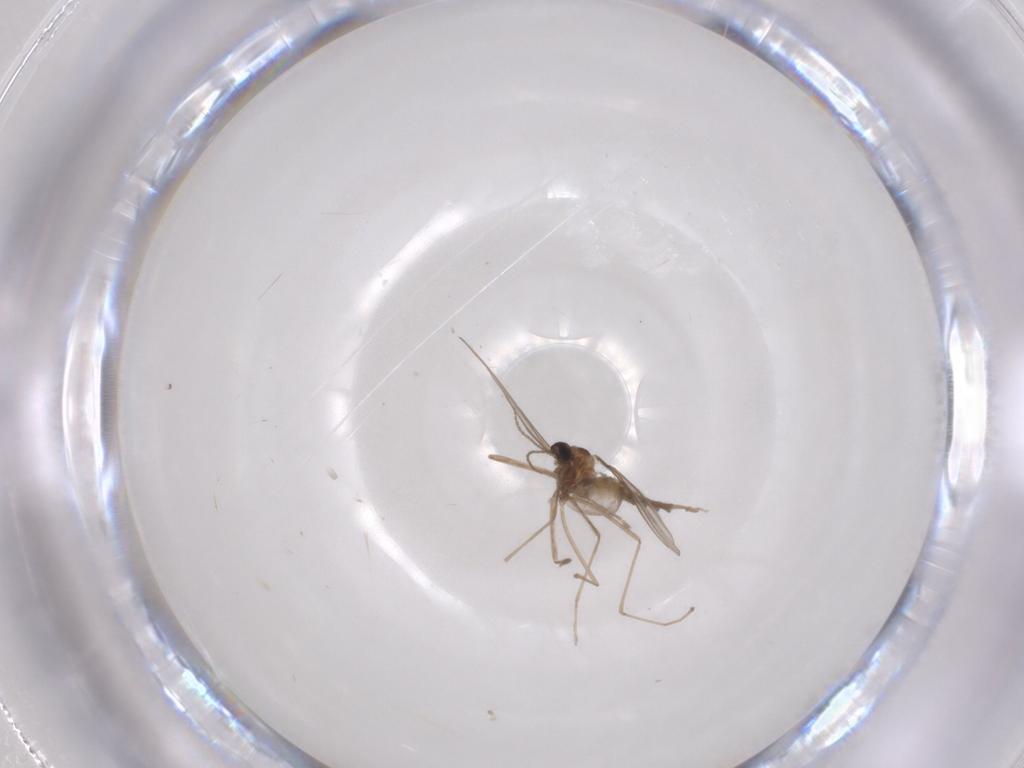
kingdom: Animalia
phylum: Arthropoda
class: Insecta
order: Diptera
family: Cecidomyiidae
